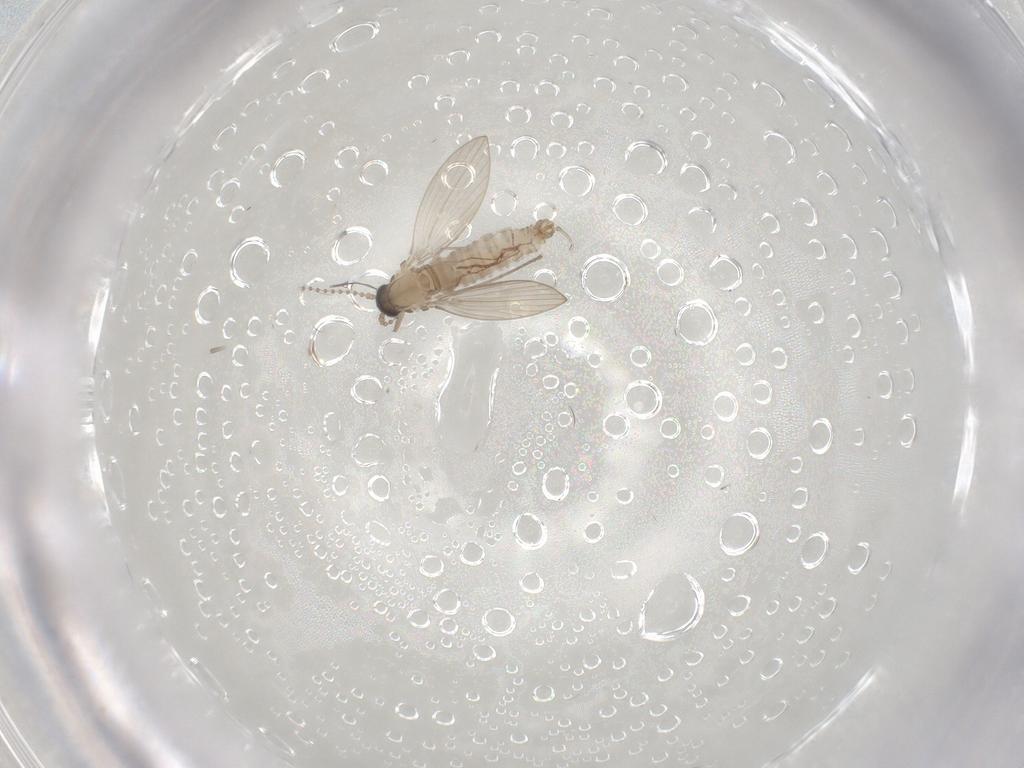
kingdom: Animalia
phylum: Arthropoda
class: Insecta
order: Diptera
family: Psychodidae
